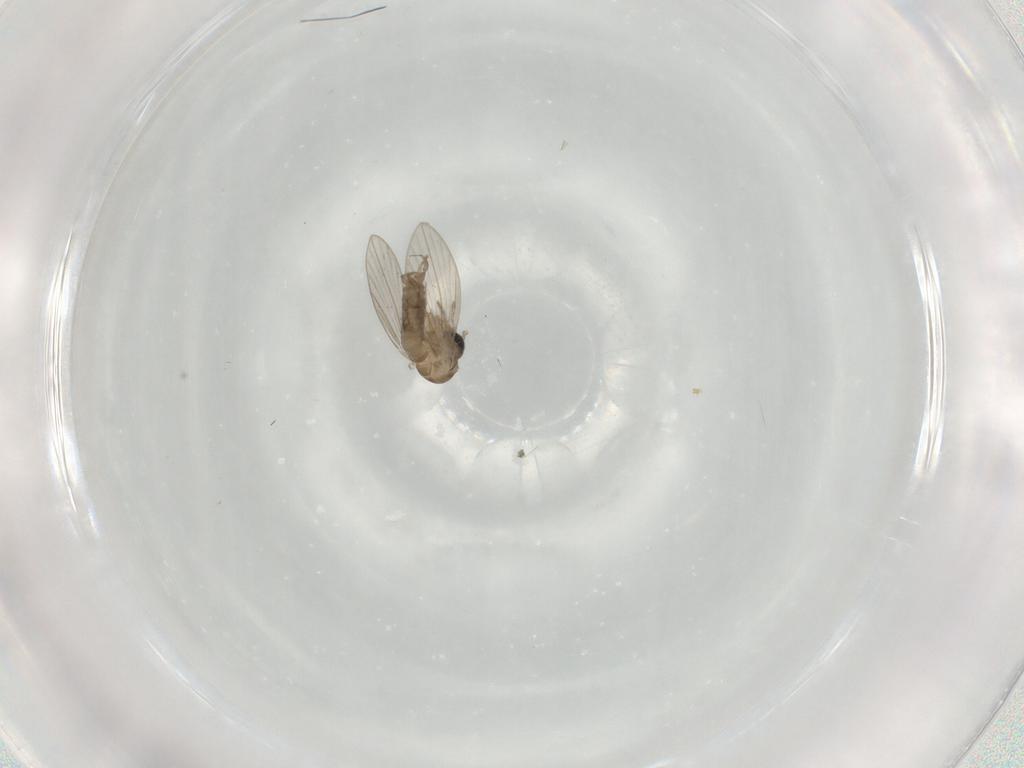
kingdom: Animalia
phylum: Arthropoda
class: Insecta
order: Diptera
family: Psychodidae
